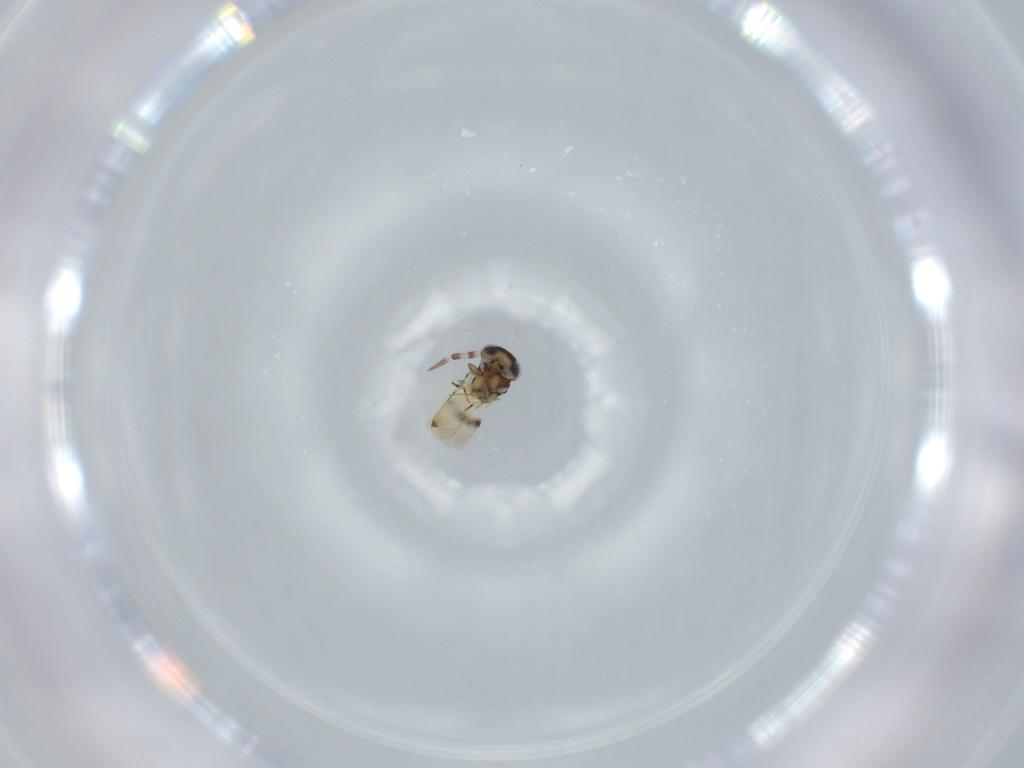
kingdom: Animalia
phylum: Arthropoda
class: Insecta
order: Hymenoptera
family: Scelionidae
